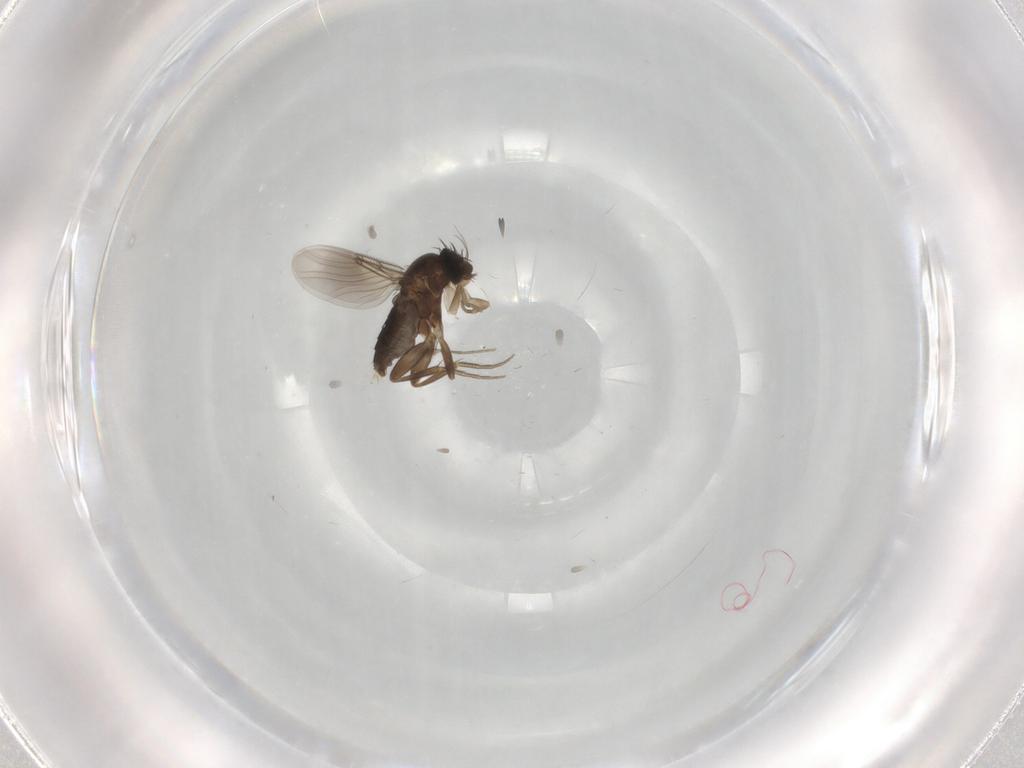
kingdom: Animalia
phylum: Arthropoda
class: Insecta
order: Diptera
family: Phoridae
